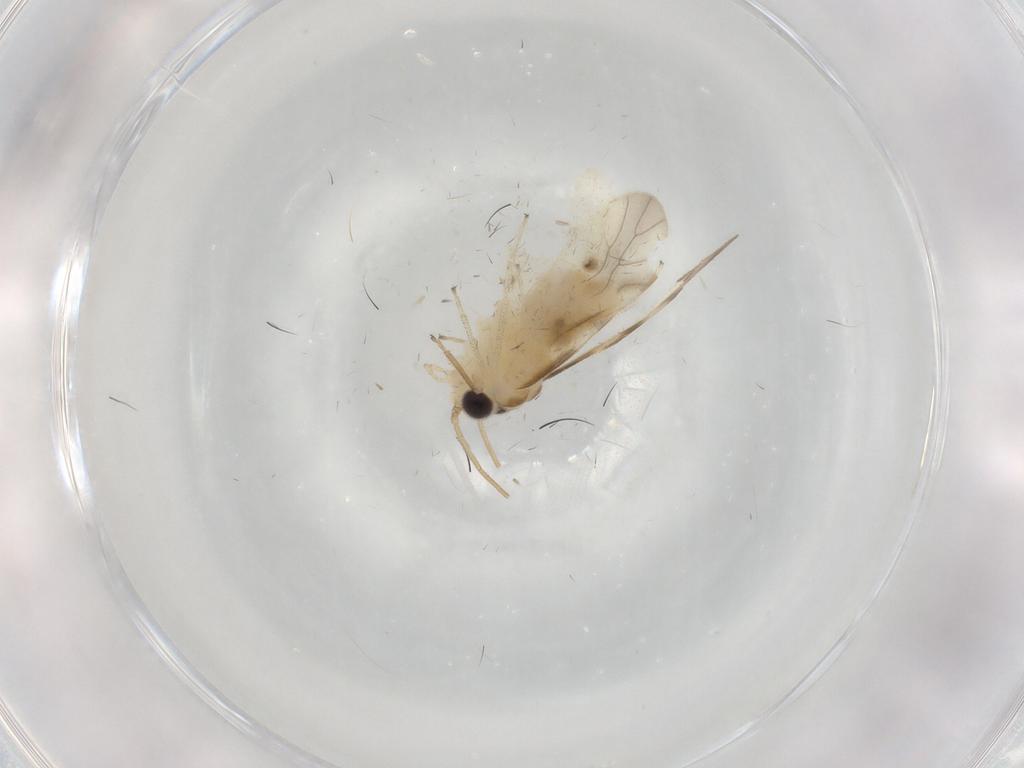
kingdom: Animalia
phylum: Arthropoda
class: Insecta
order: Psocodea
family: Caeciliusidae
